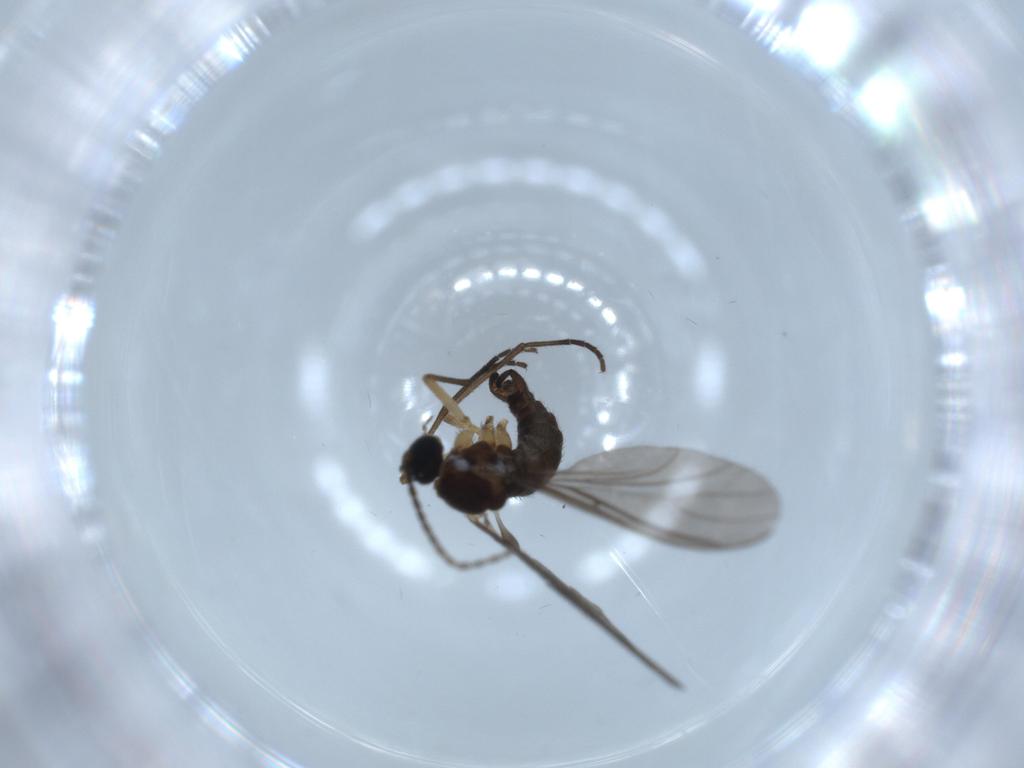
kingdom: Animalia
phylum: Arthropoda
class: Insecta
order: Diptera
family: Sciaridae
